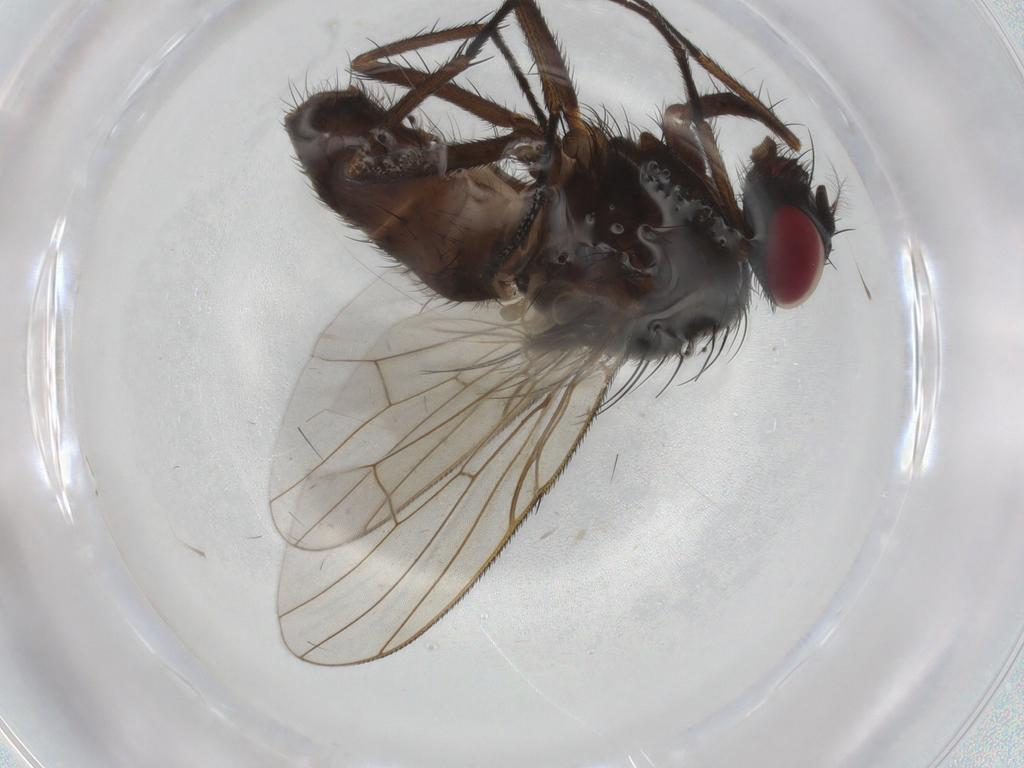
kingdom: Animalia
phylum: Arthropoda
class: Insecta
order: Diptera
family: Muscidae
